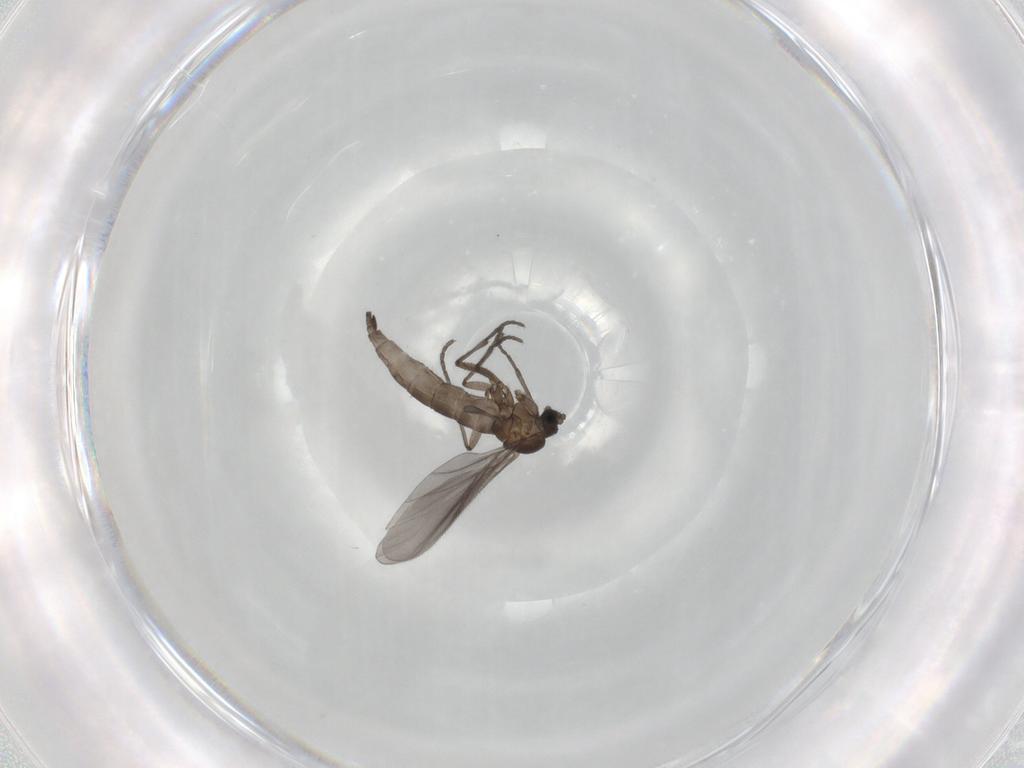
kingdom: Animalia
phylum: Arthropoda
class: Insecta
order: Diptera
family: Sciaridae
